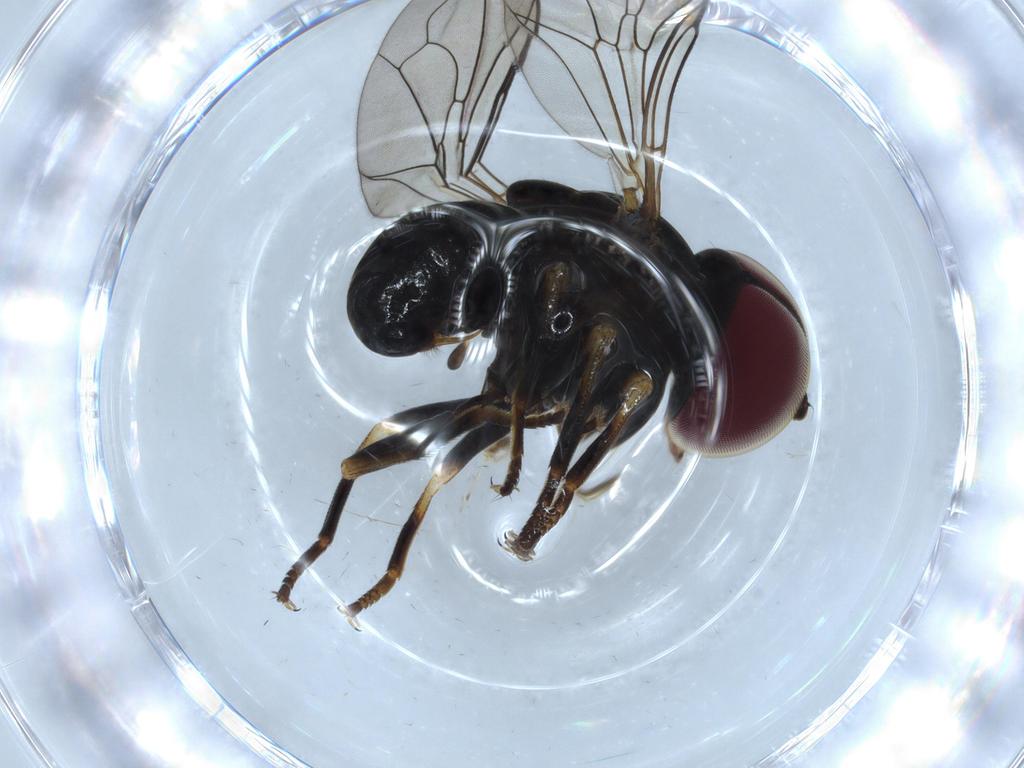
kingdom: Animalia
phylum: Arthropoda
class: Insecta
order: Diptera
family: Pipunculidae
